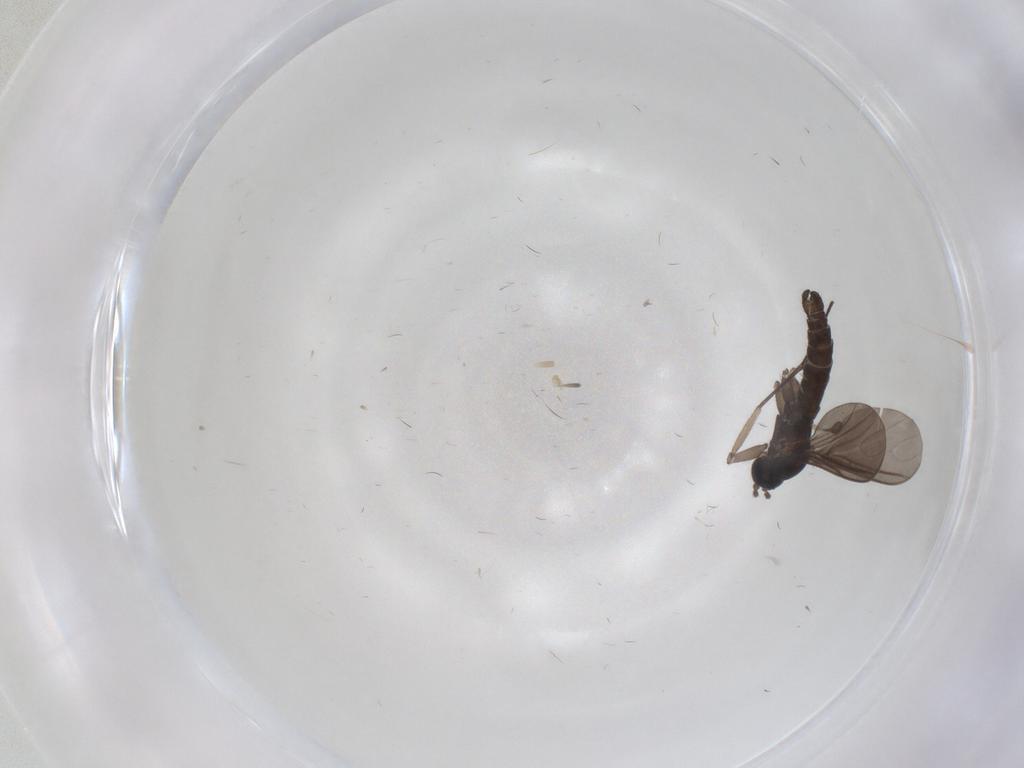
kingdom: Animalia
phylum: Arthropoda
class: Insecta
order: Diptera
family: Sciaridae
